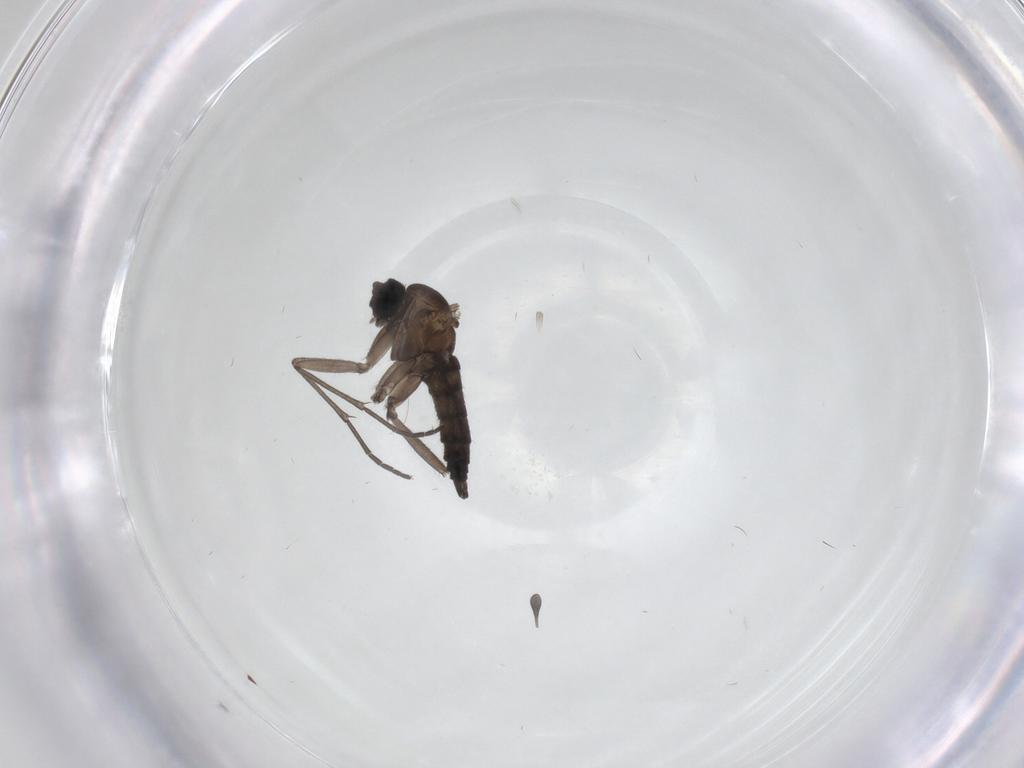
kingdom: Animalia
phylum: Arthropoda
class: Insecta
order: Diptera
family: Sciaridae
